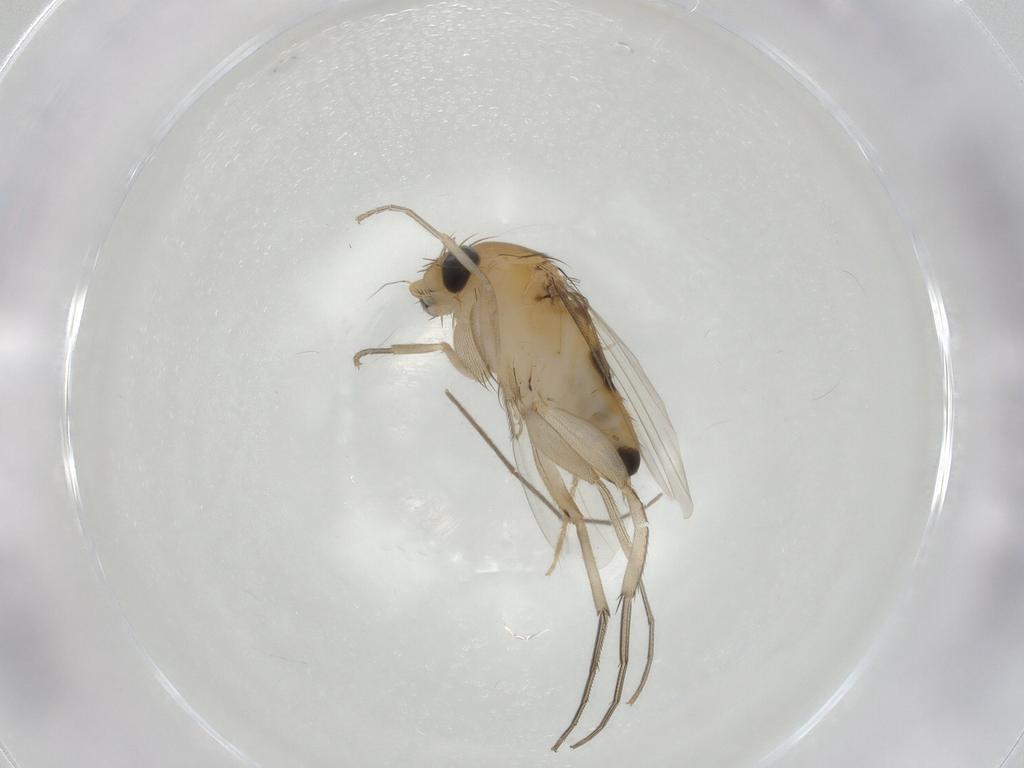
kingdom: Animalia
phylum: Arthropoda
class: Insecta
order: Diptera
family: Phoridae
